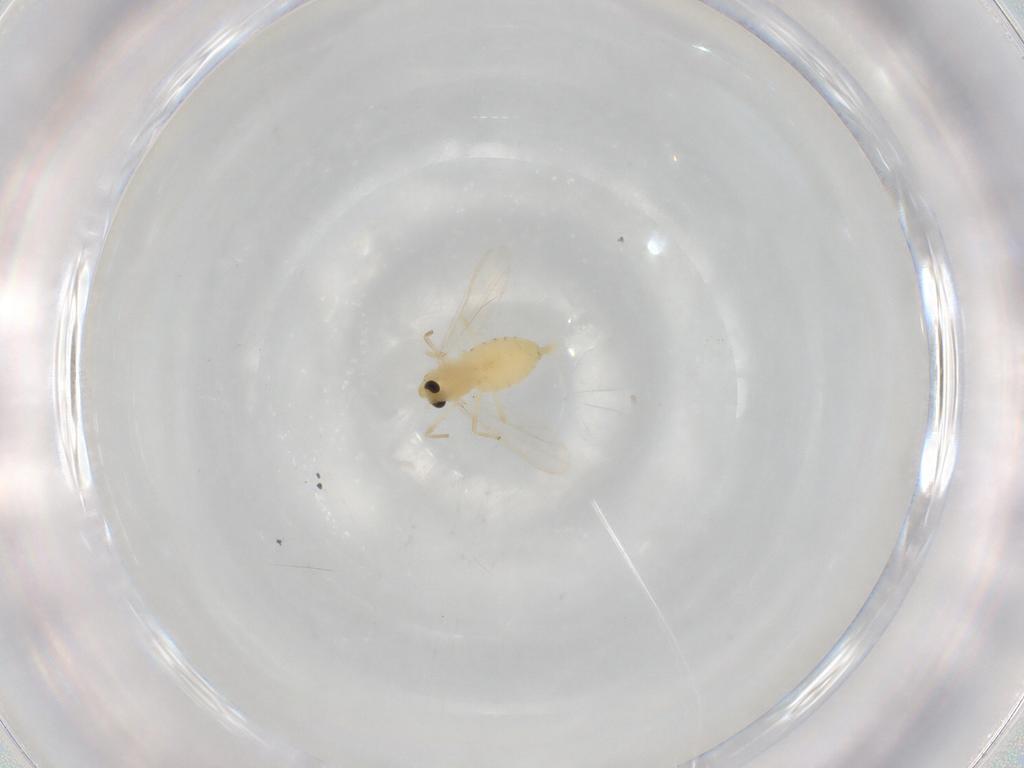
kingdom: Animalia
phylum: Arthropoda
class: Insecta
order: Diptera
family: Chironomidae
